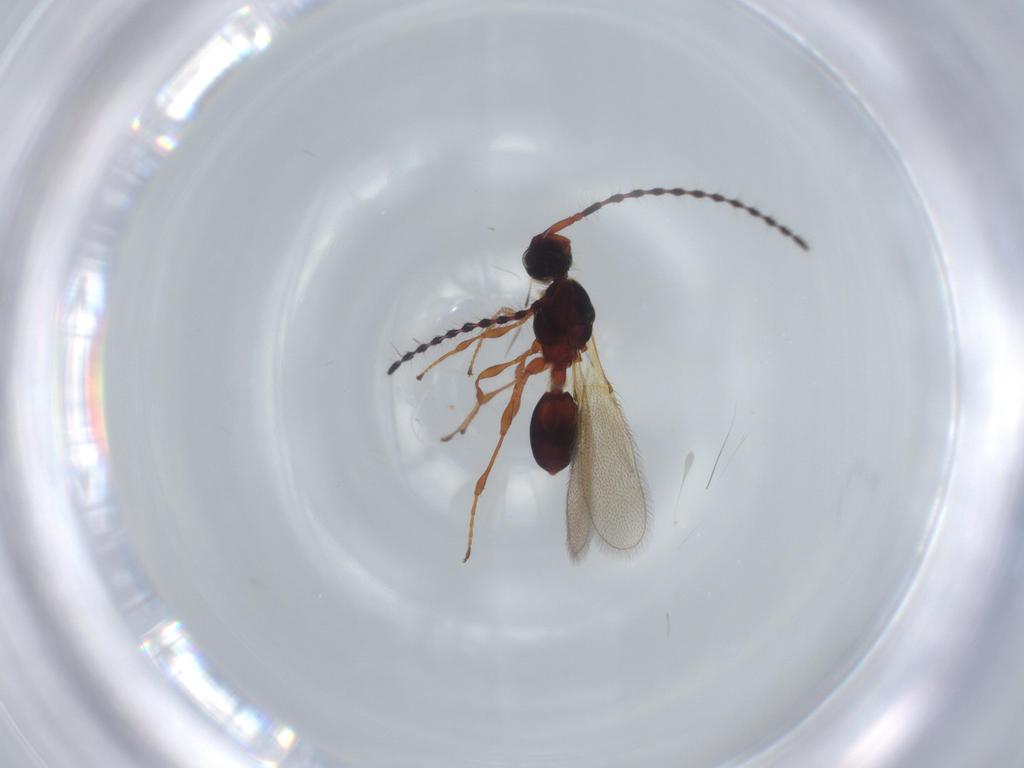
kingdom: Animalia
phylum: Arthropoda
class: Insecta
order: Hymenoptera
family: Diapriidae
